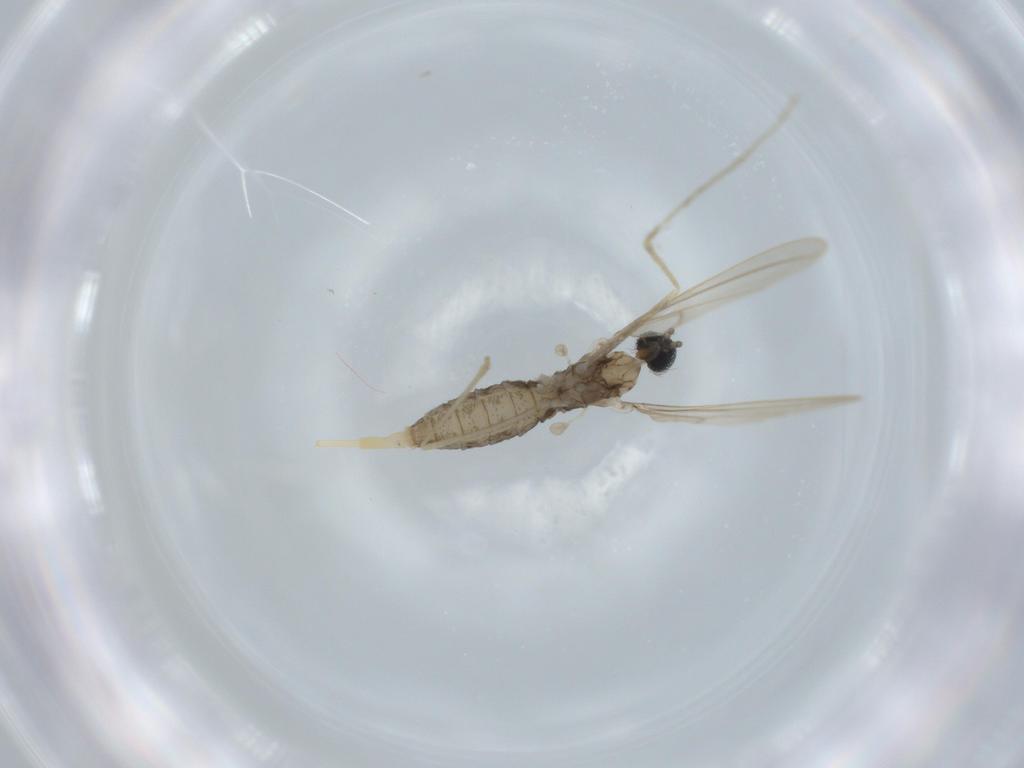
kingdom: Animalia
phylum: Arthropoda
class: Insecta
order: Diptera
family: Cecidomyiidae
